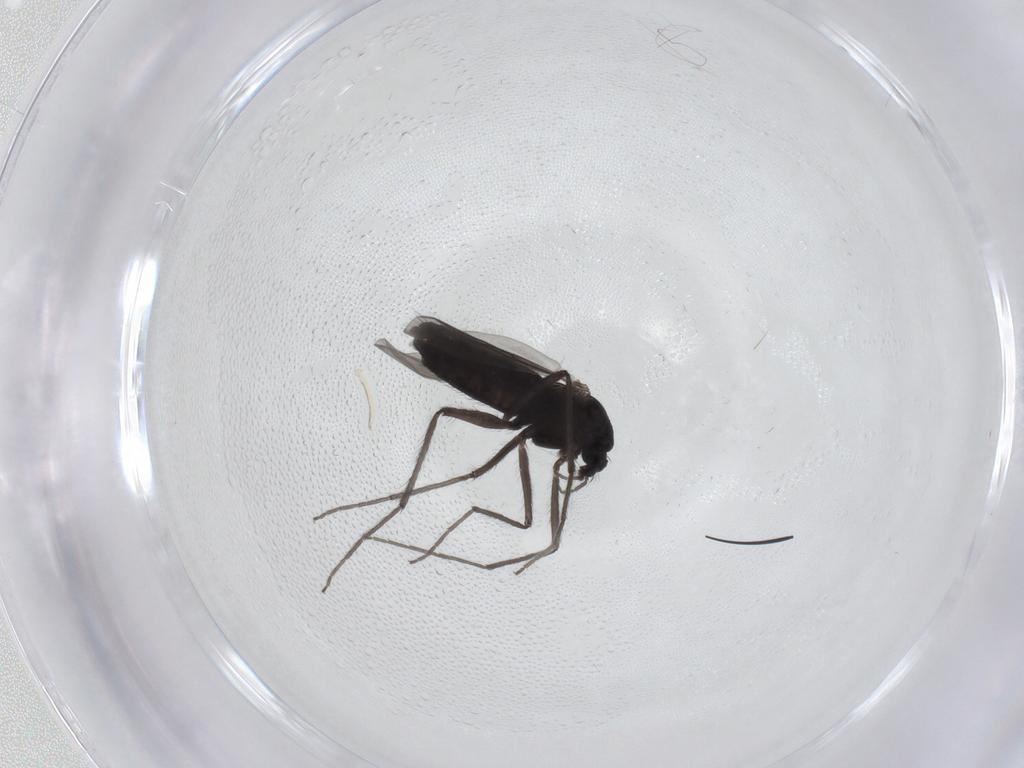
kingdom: Animalia
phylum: Arthropoda
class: Insecta
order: Diptera
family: Chironomidae
